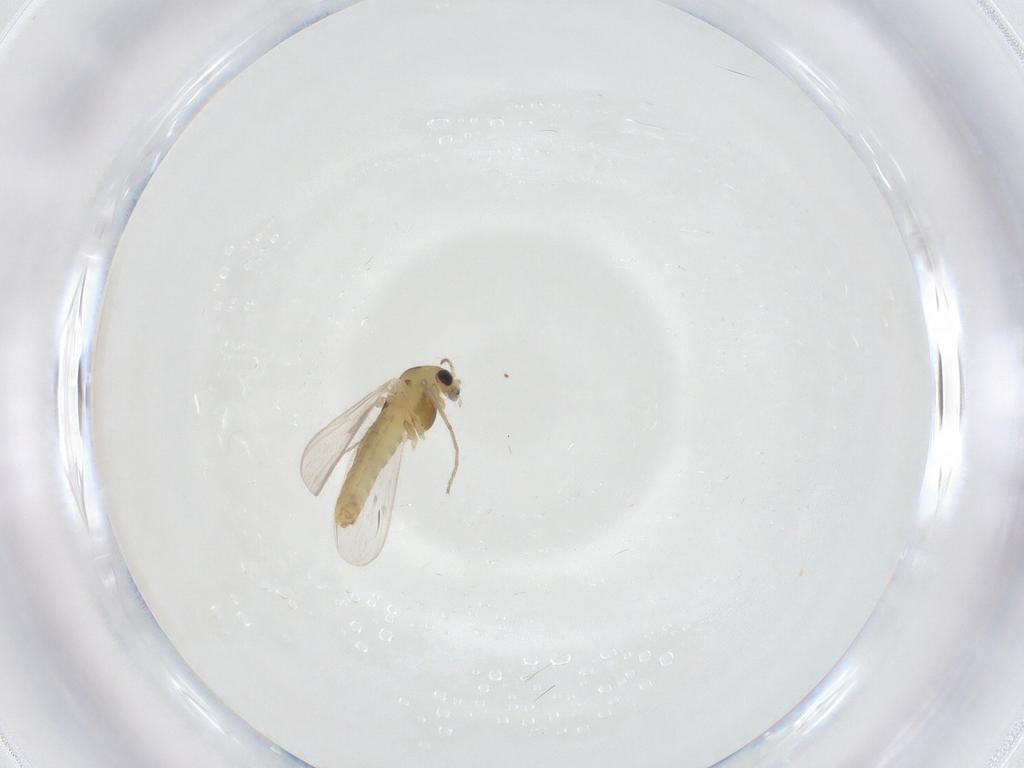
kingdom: Animalia
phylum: Arthropoda
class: Insecta
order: Diptera
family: Chironomidae
